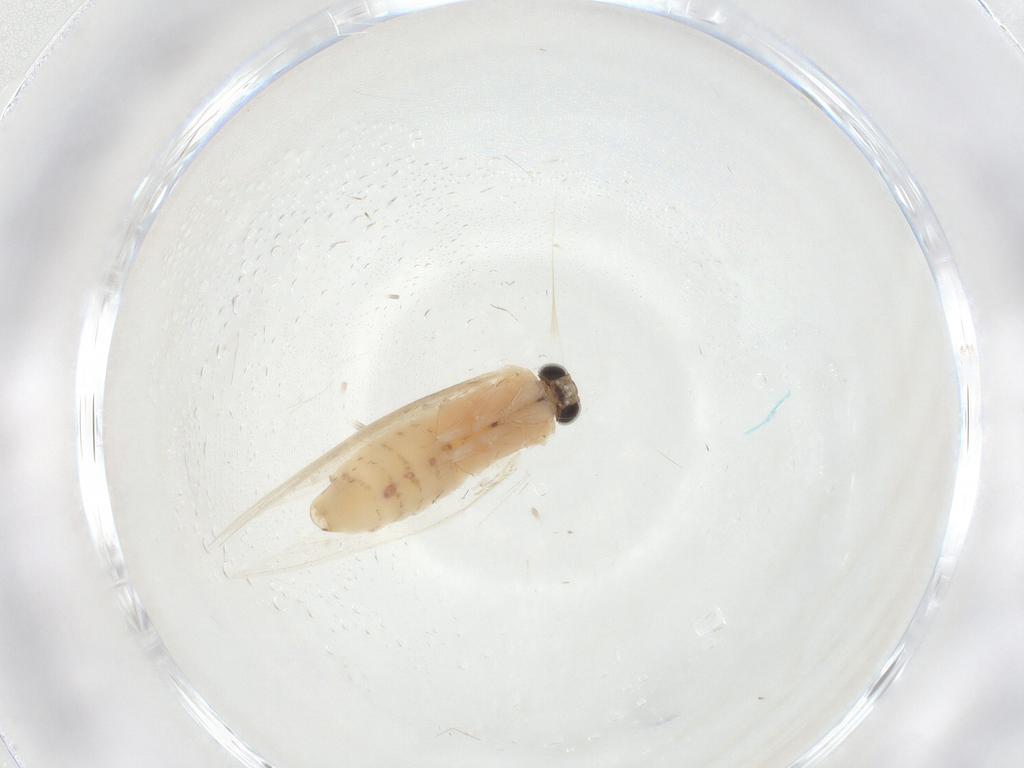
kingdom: Animalia
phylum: Arthropoda
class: Insecta
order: Lepidoptera
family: Crambidae
